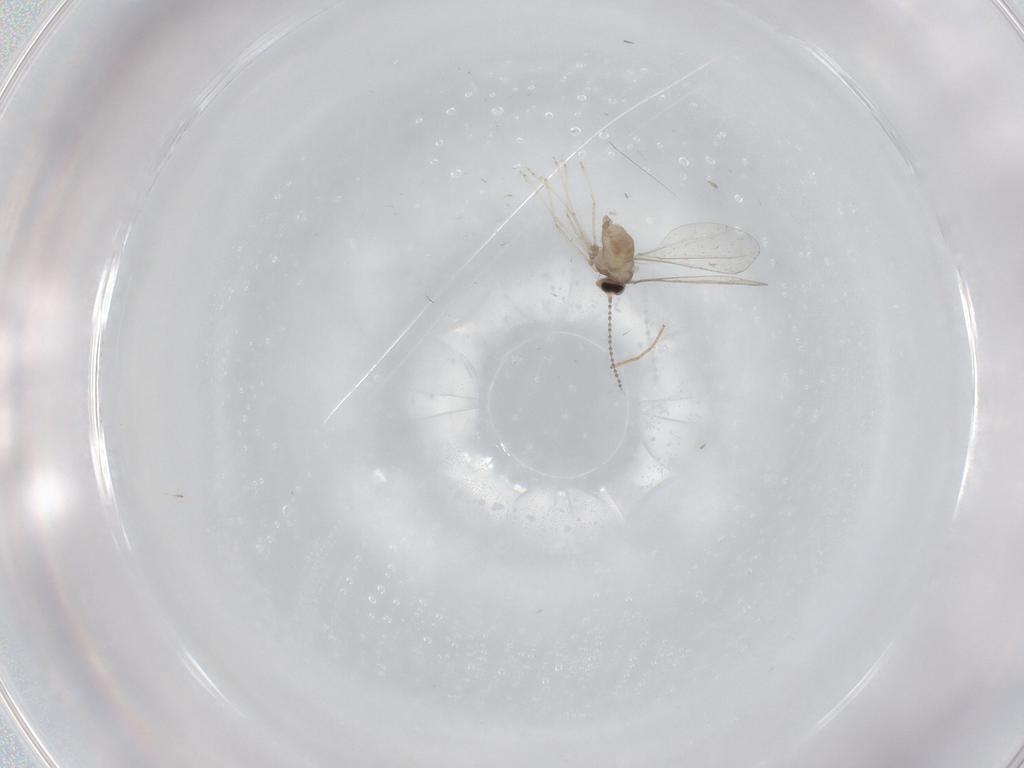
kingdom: Animalia
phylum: Arthropoda
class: Insecta
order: Diptera
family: Chironomidae
